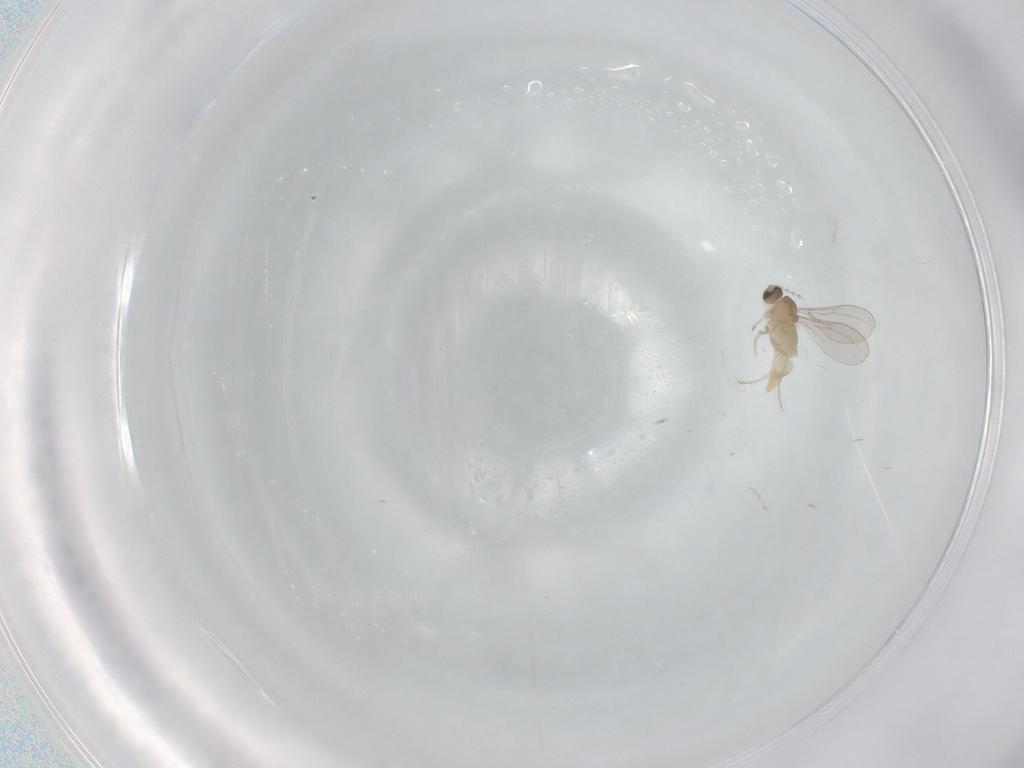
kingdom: Animalia
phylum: Arthropoda
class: Insecta
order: Diptera
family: Cecidomyiidae
